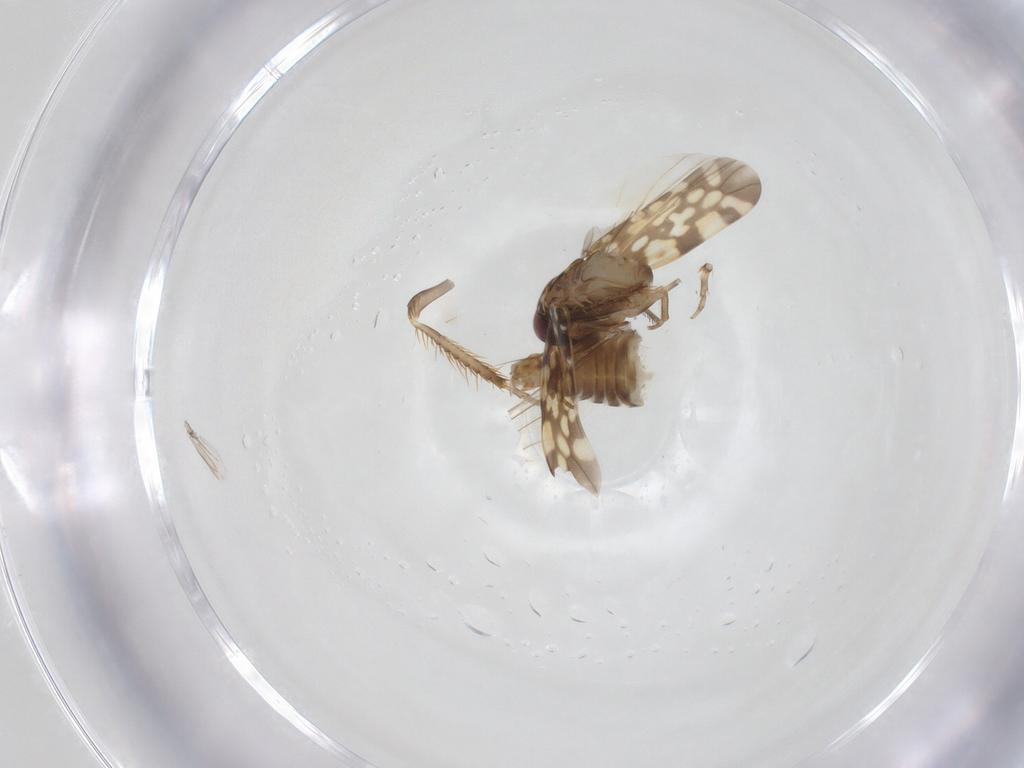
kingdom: Animalia
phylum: Arthropoda
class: Insecta
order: Hemiptera
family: Cicadellidae
